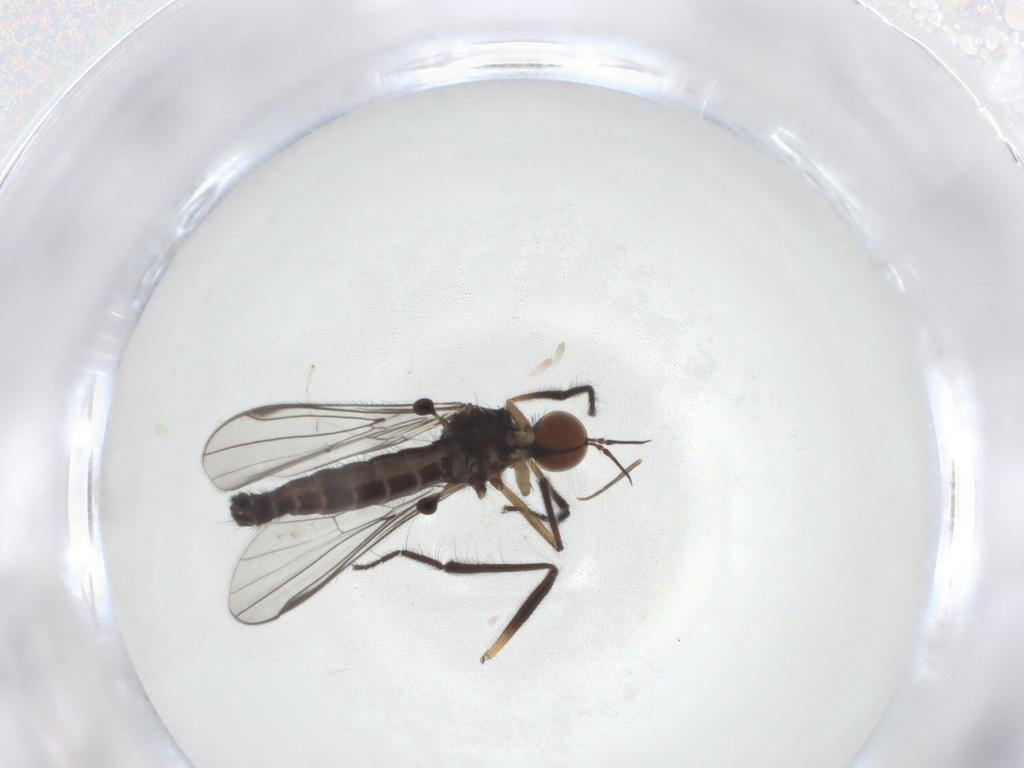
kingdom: Animalia
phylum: Arthropoda
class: Insecta
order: Diptera
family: Empididae
